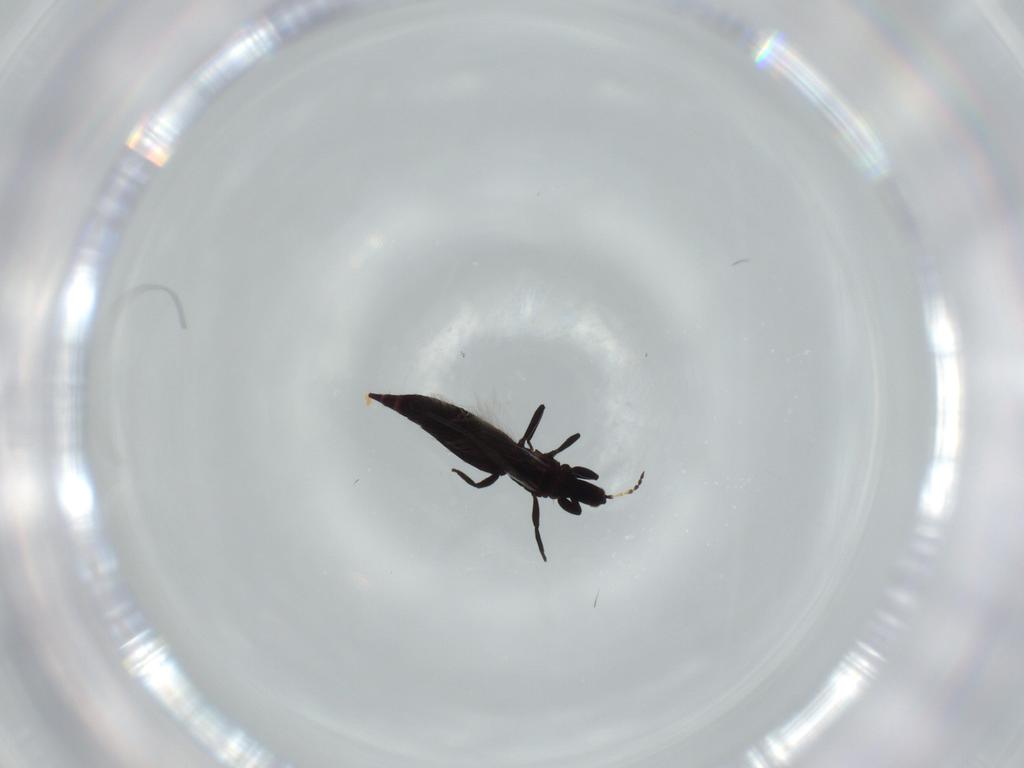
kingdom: Animalia
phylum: Arthropoda
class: Insecta
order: Thysanoptera
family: Phlaeothripidae
